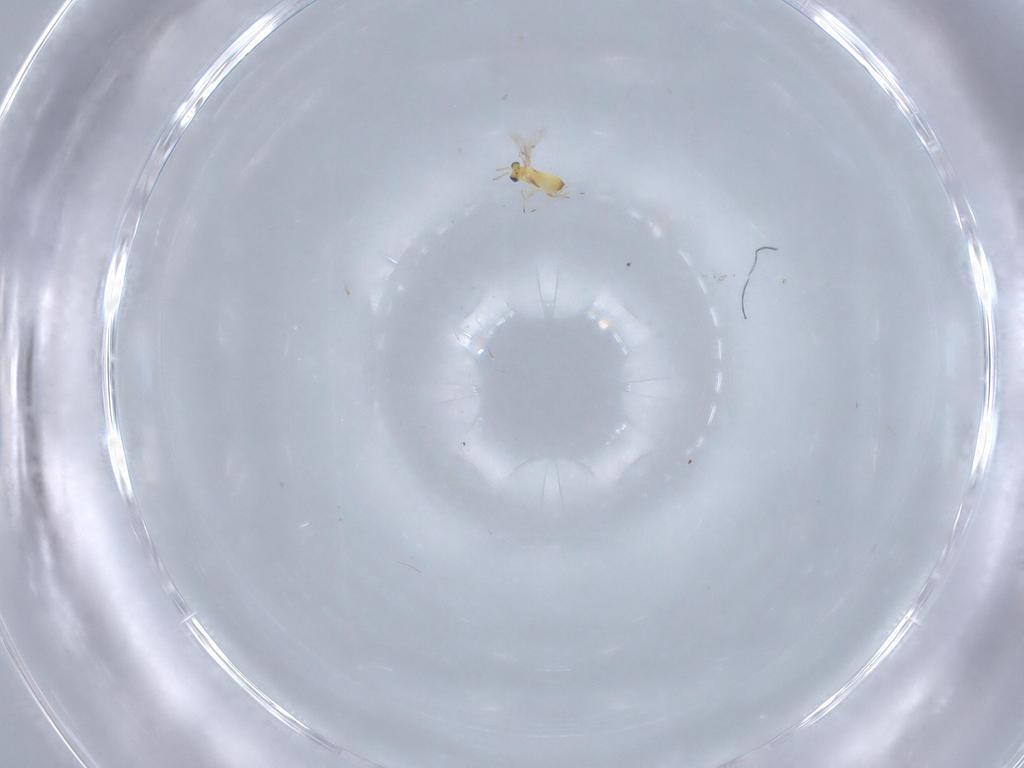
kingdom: Animalia
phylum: Arthropoda
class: Insecta
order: Hymenoptera
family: Trichogrammatidae
